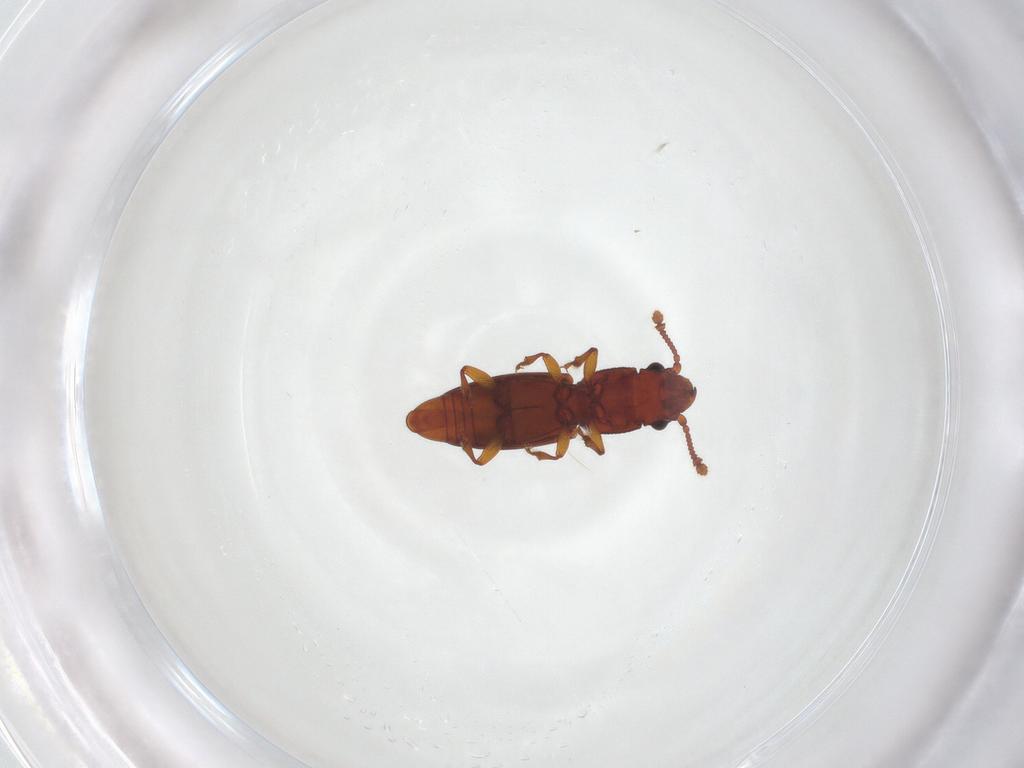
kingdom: Animalia
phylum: Arthropoda
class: Insecta
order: Coleoptera
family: Monotomidae
